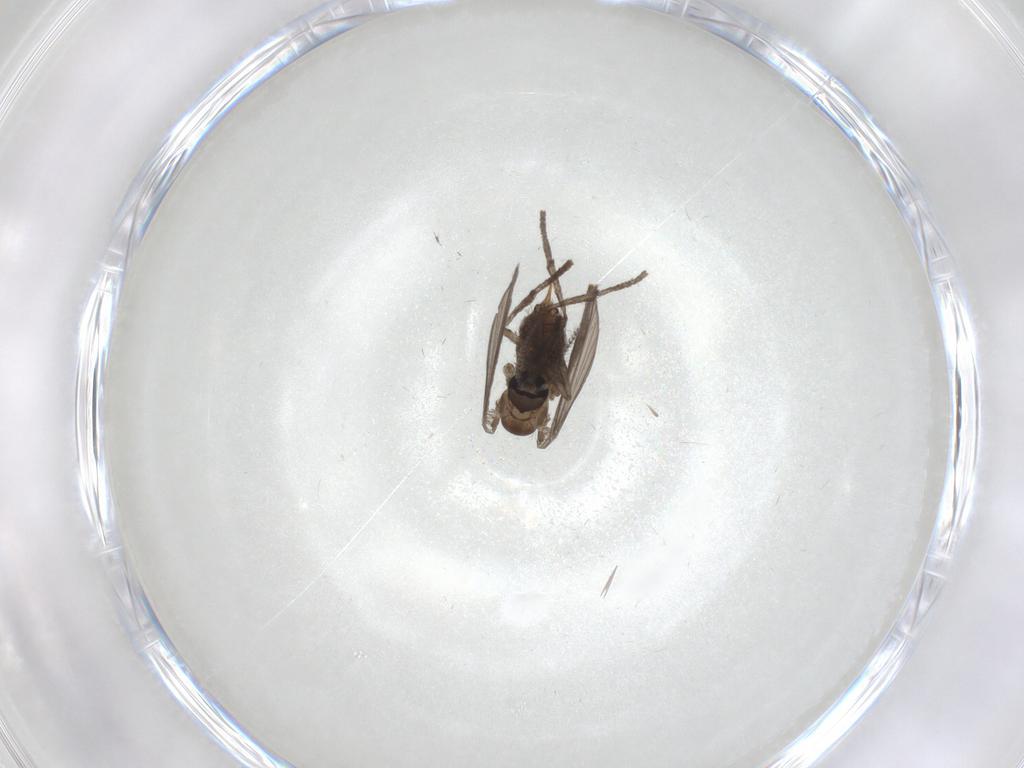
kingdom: Animalia
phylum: Arthropoda
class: Insecta
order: Diptera
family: Psychodidae
